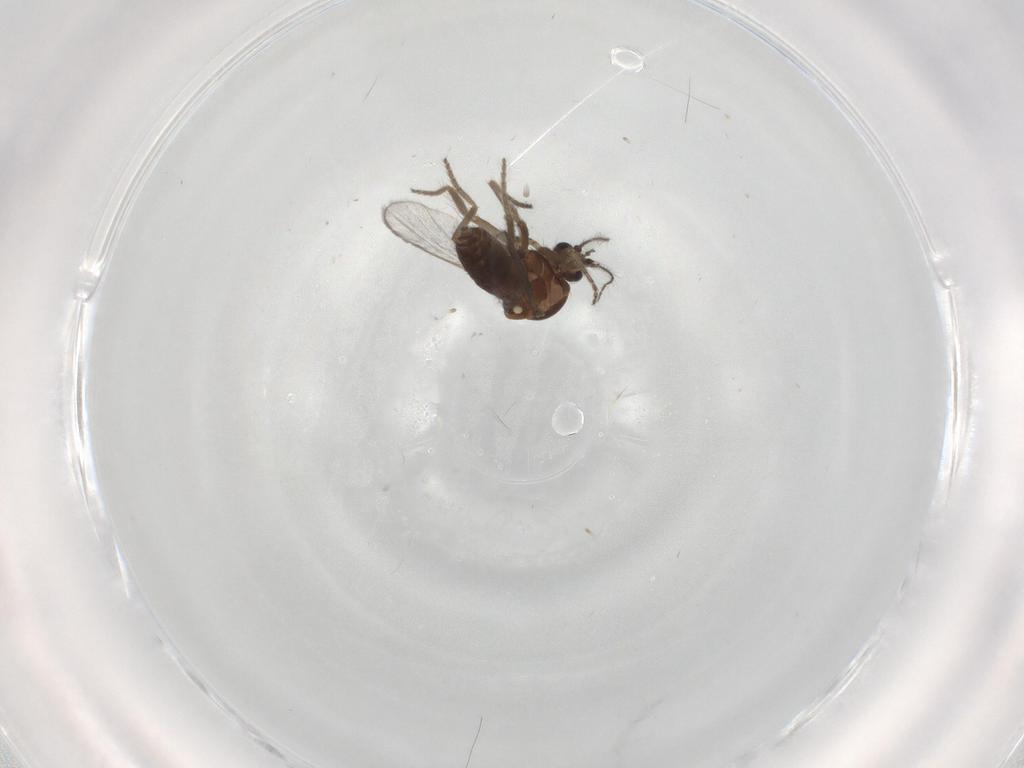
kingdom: Animalia
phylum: Arthropoda
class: Insecta
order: Diptera
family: Ceratopogonidae
